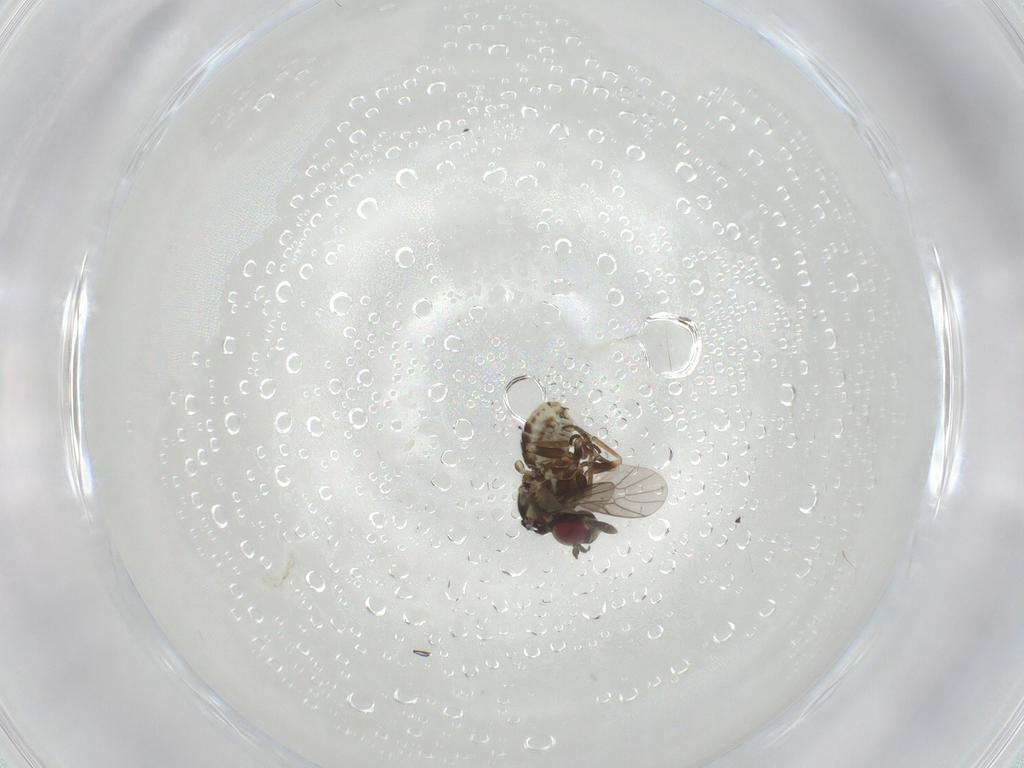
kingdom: Animalia
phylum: Arthropoda
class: Insecta
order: Diptera
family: Bombyliidae
